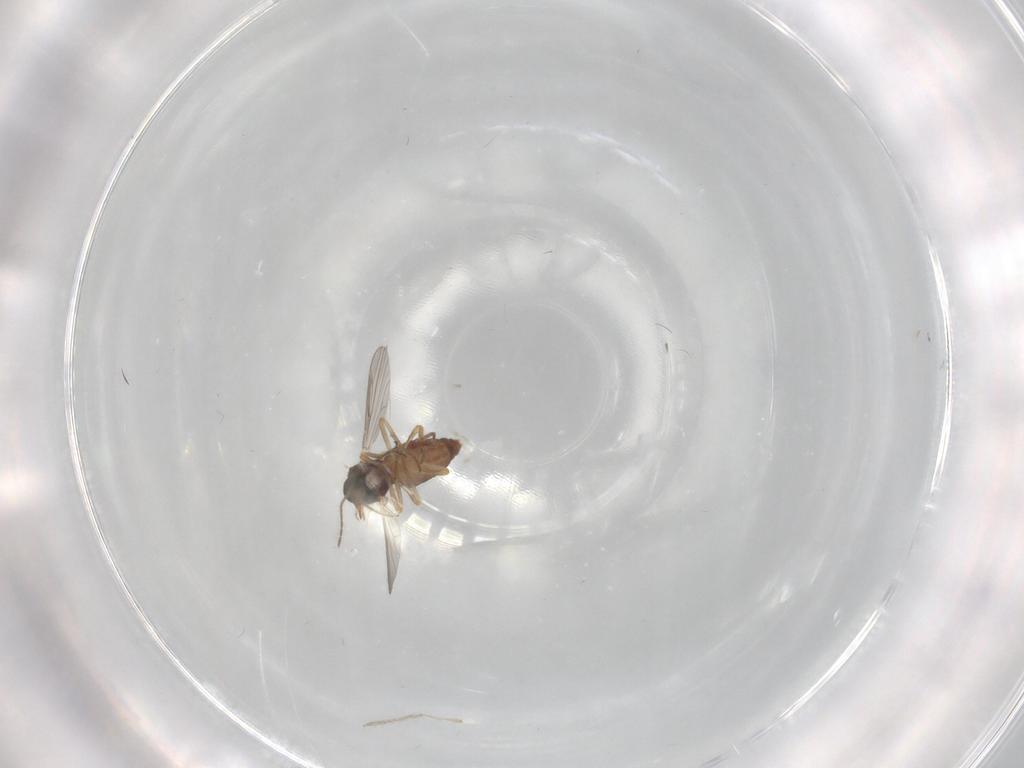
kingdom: Animalia
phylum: Arthropoda
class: Insecta
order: Diptera
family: Ceratopogonidae
